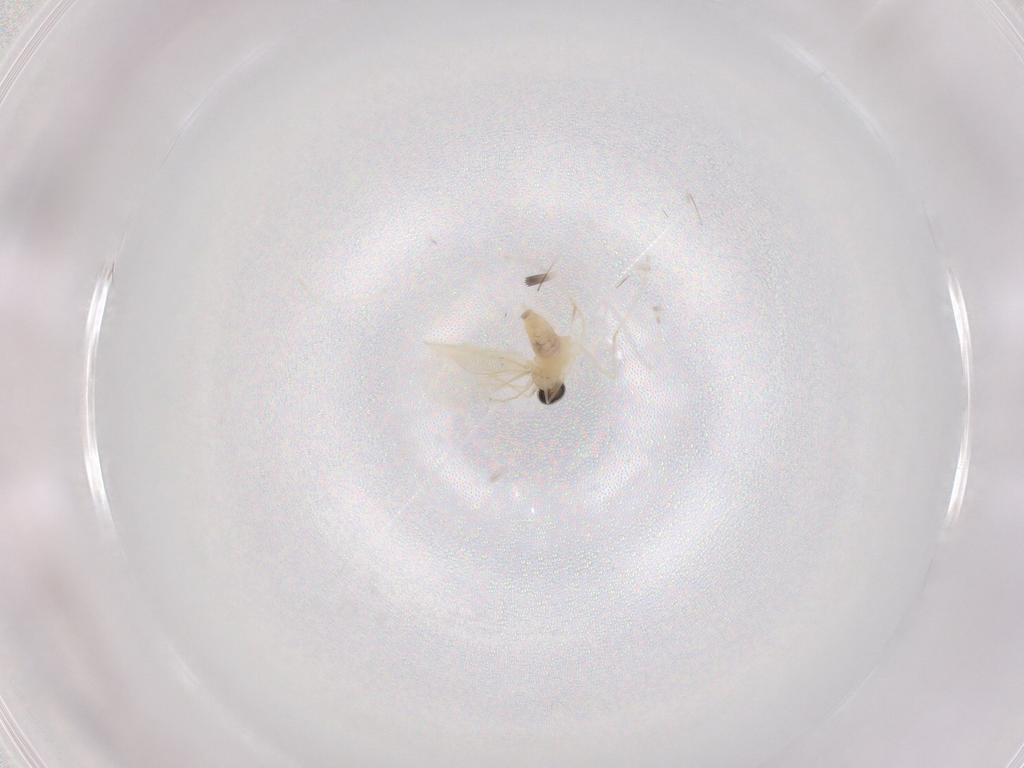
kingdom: Animalia
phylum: Arthropoda
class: Insecta
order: Diptera
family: Cecidomyiidae
